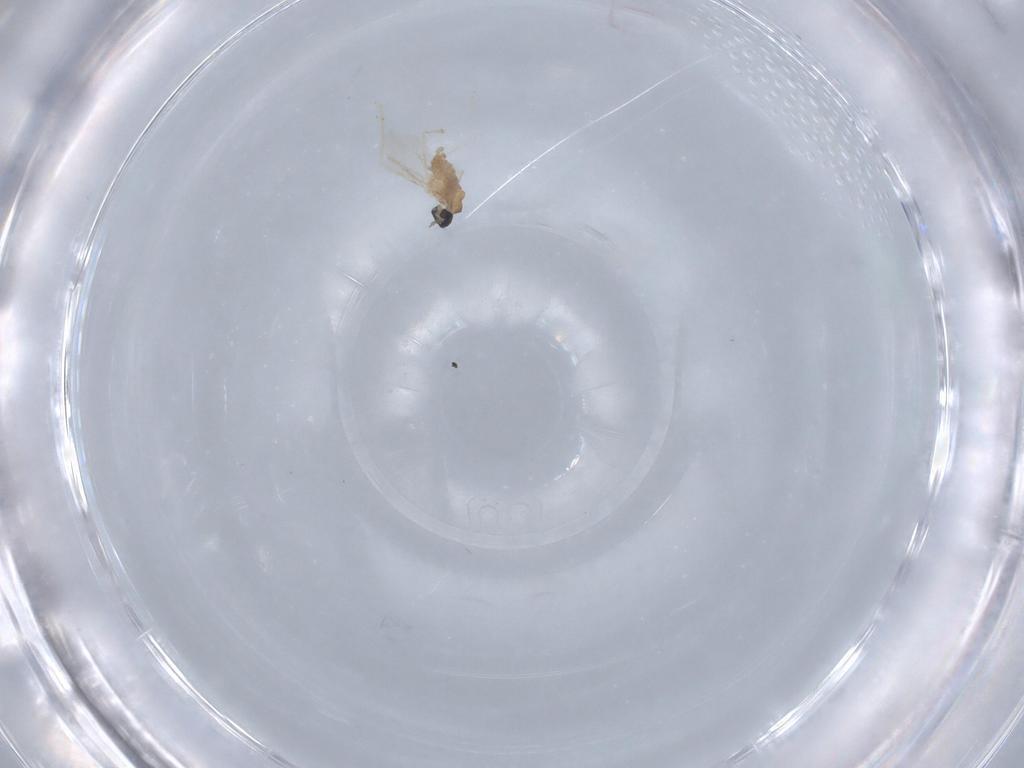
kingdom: Animalia
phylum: Arthropoda
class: Insecta
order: Diptera
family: Cecidomyiidae
